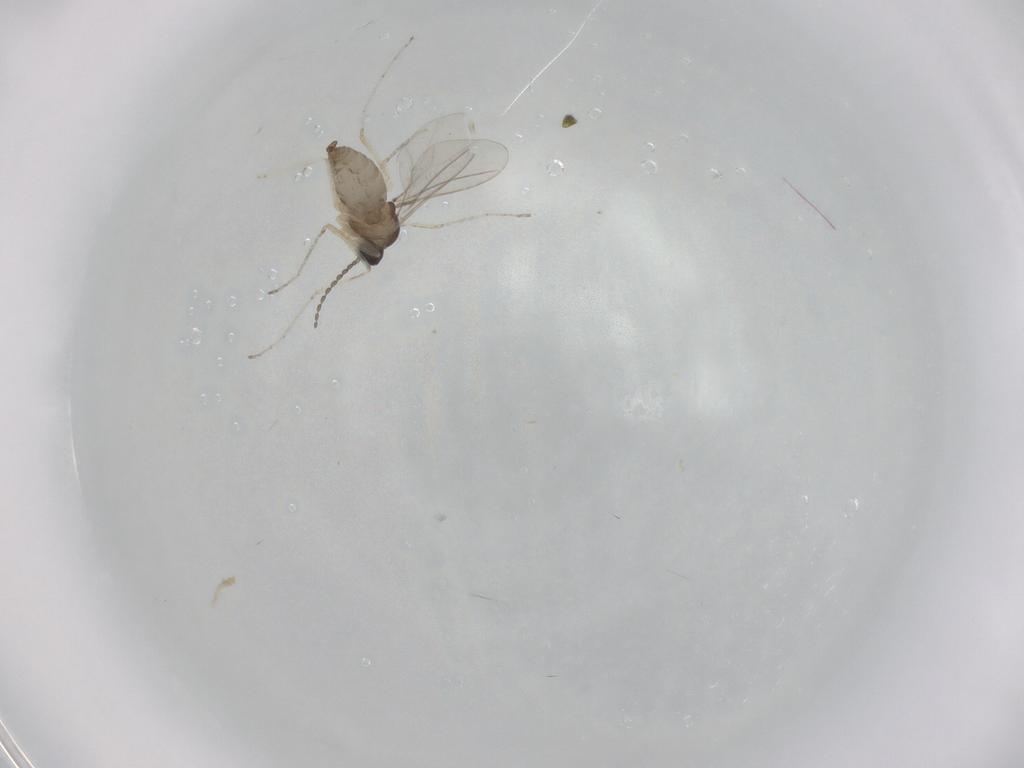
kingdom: Animalia
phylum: Arthropoda
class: Insecta
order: Diptera
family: Cecidomyiidae
